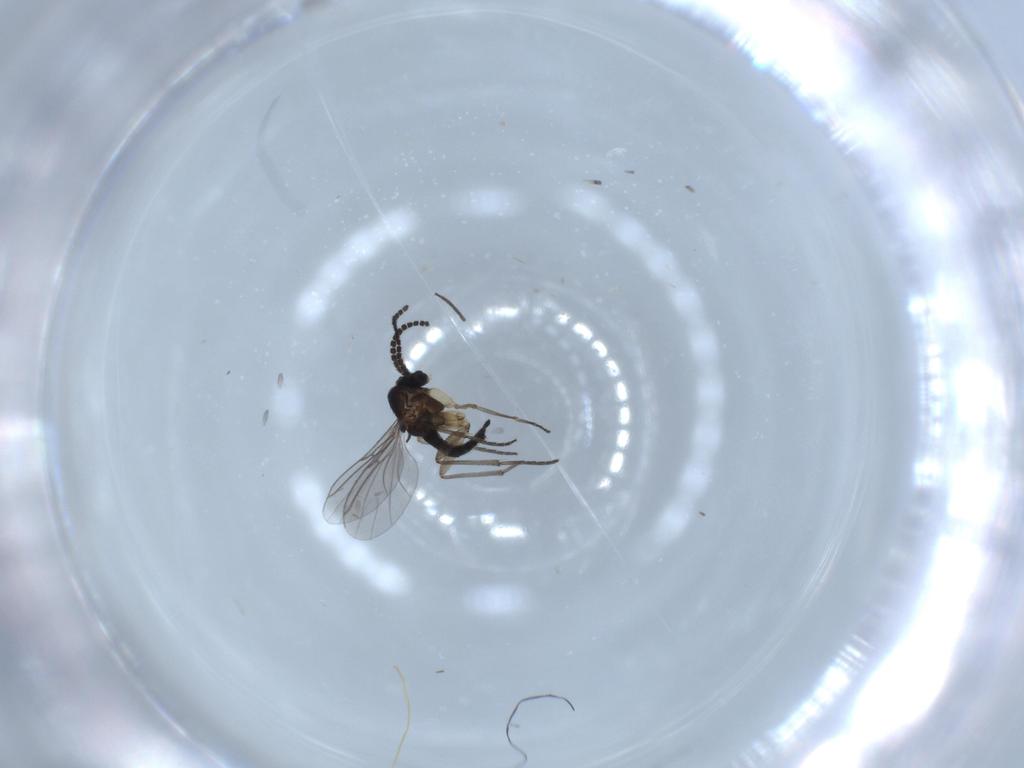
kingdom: Animalia
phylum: Arthropoda
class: Insecta
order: Diptera
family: Sciaridae
